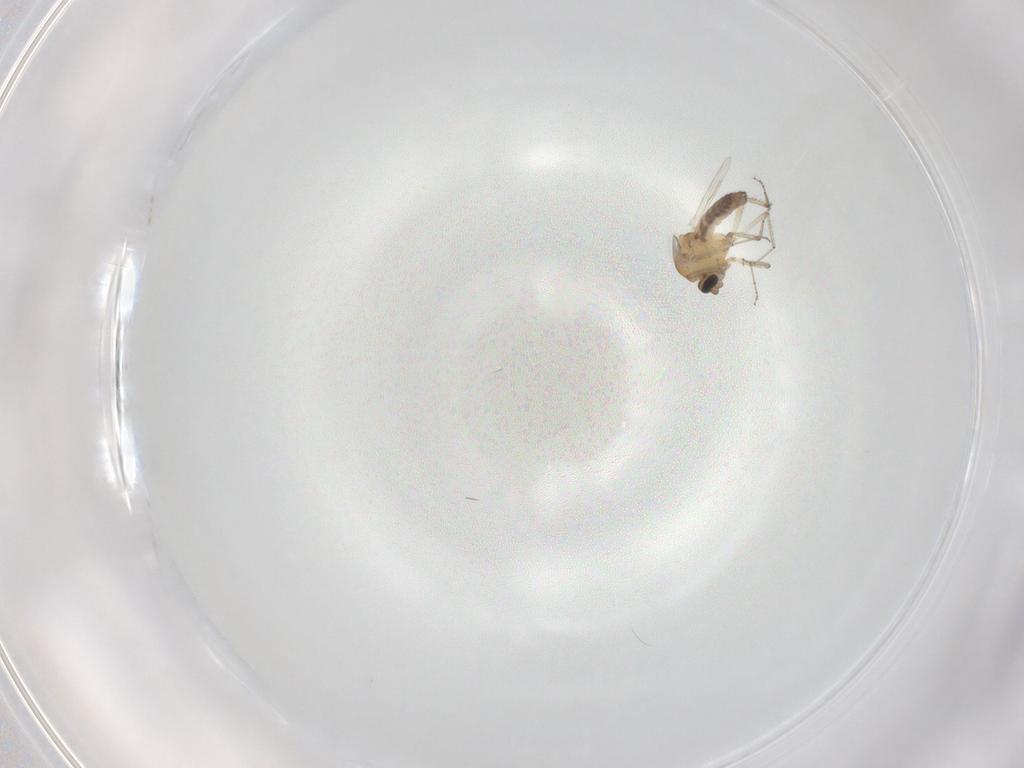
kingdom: Animalia
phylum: Arthropoda
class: Insecta
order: Diptera
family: Ceratopogonidae
